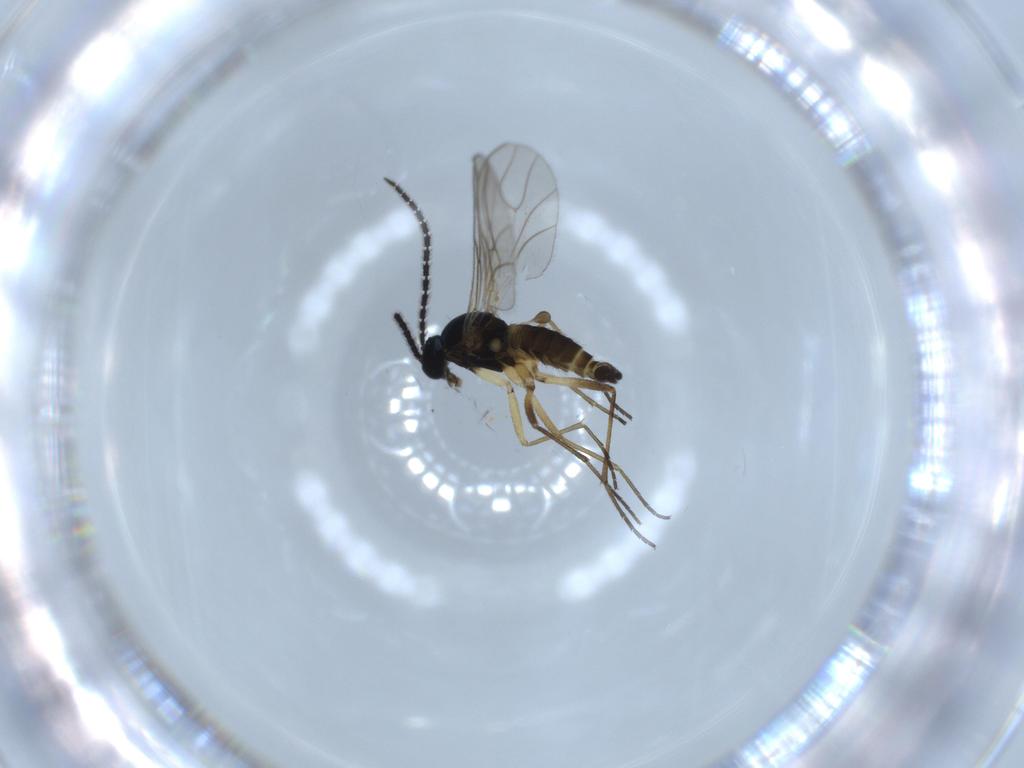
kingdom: Animalia
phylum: Arthropoda
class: Insecta
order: Diptera
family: Sciaridae
